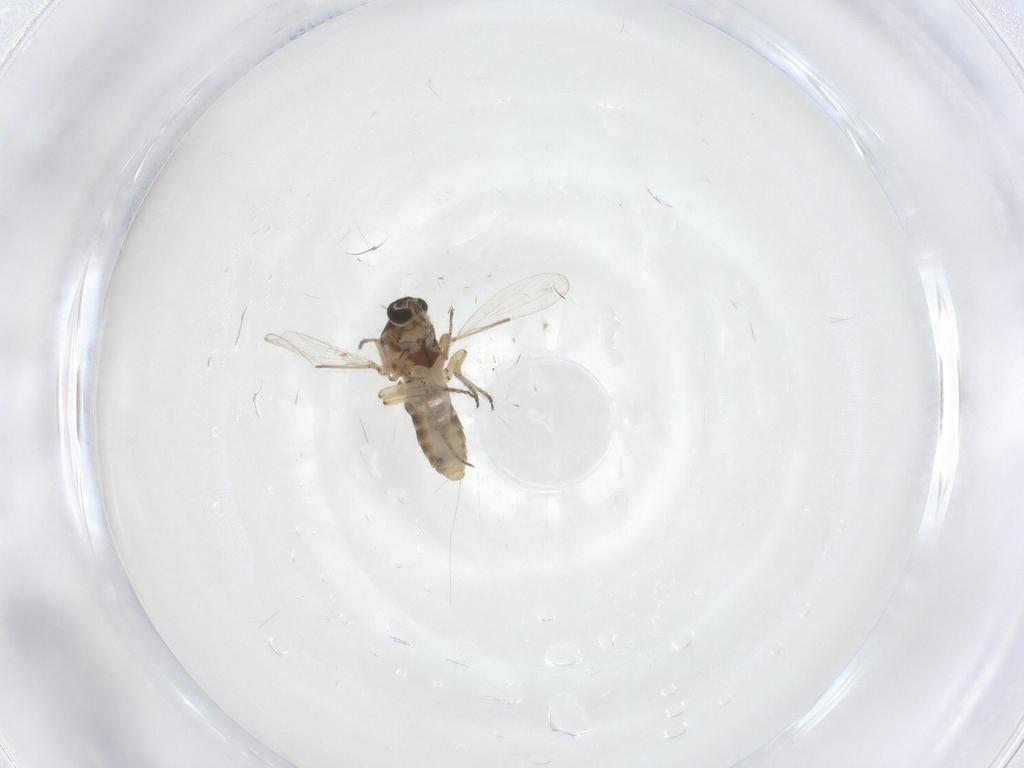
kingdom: Animalia
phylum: Arthropoda
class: Insecta
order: Diptera
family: Ceratopogonidae
